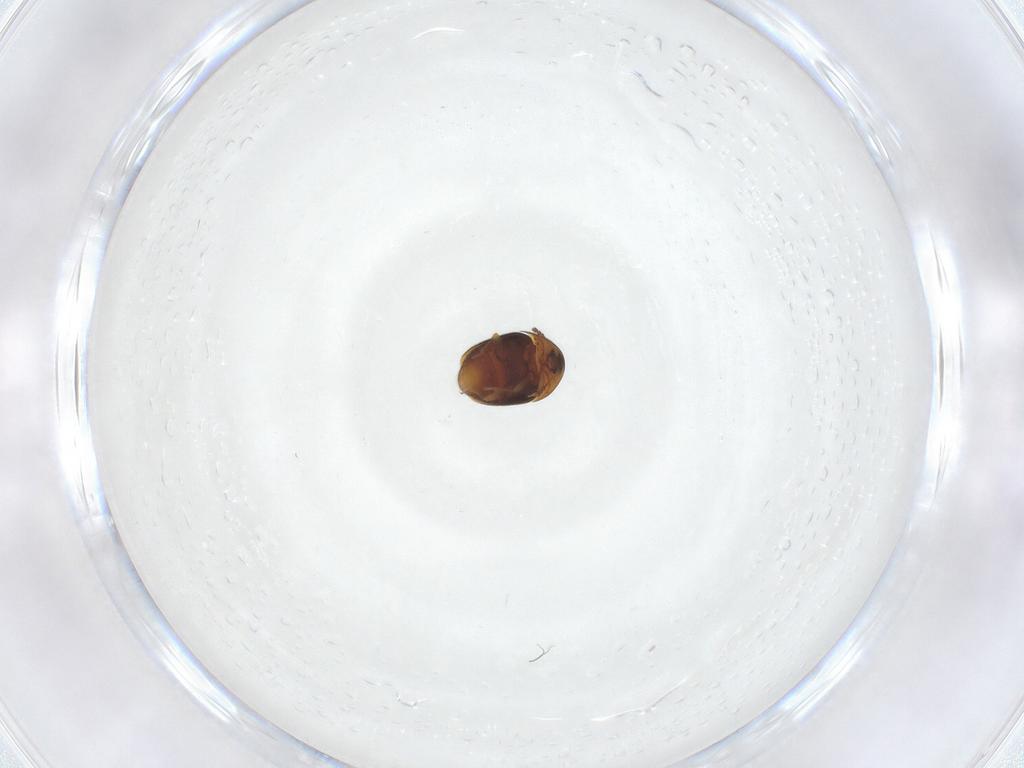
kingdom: Animalia
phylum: Arthropoda
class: Insecta
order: Coleoptera
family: Corylophidae
